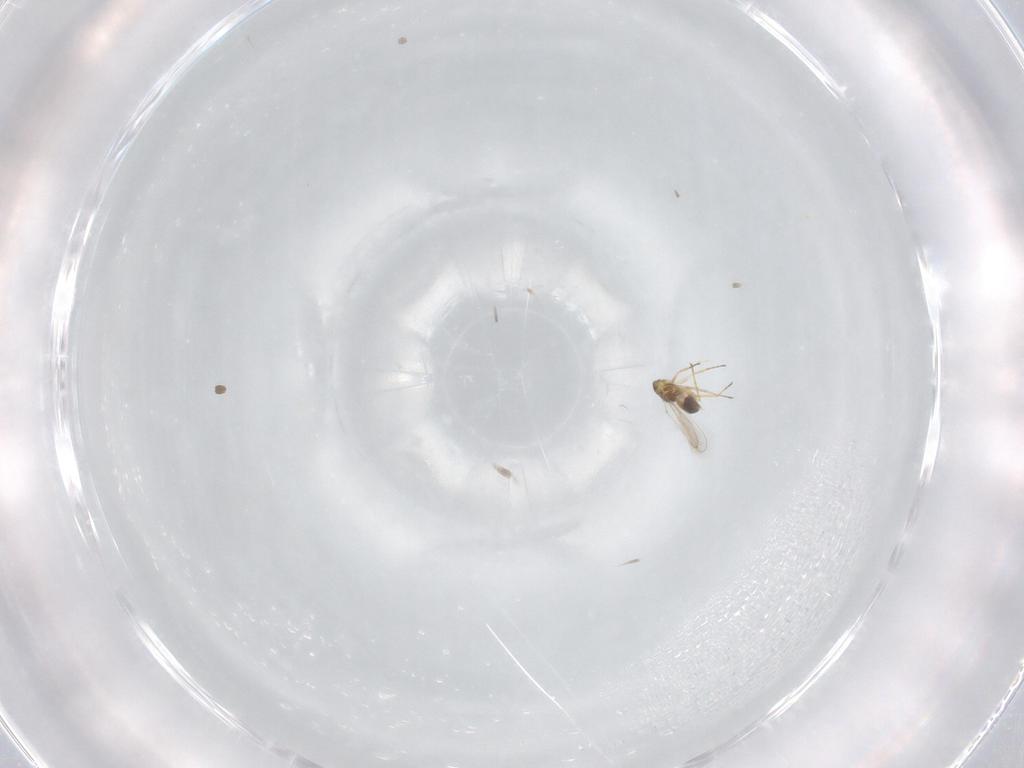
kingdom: Animalia
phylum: Arthropoda
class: Insecta
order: Hymenoptera
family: Eulophidae
